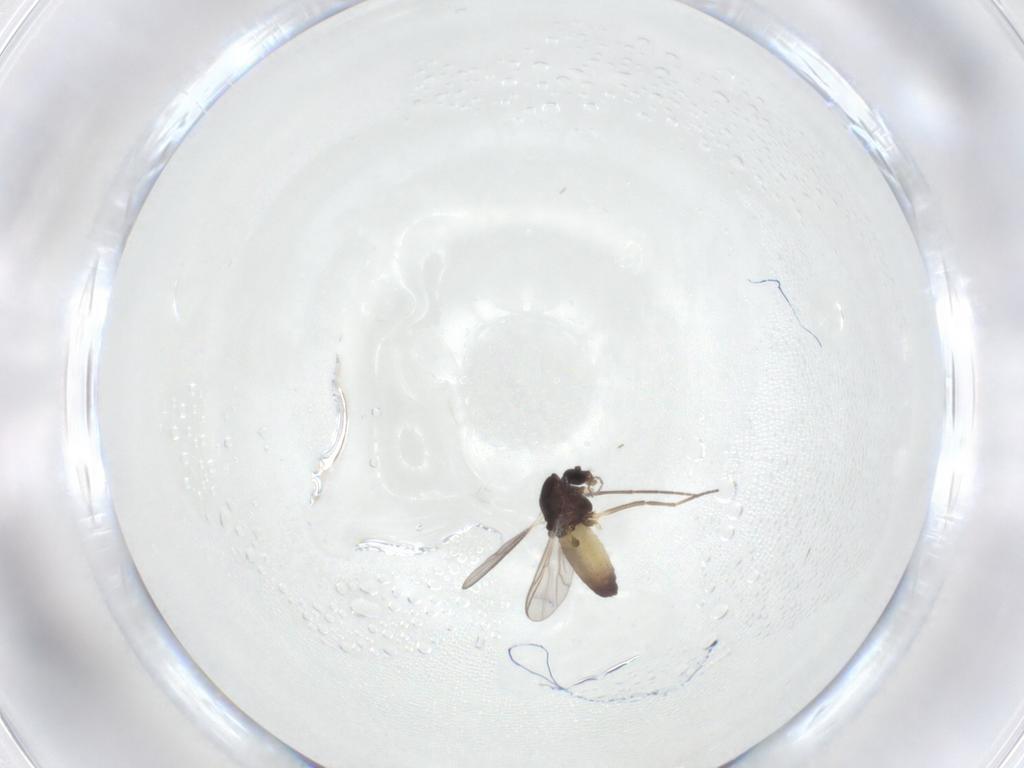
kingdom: Animalia
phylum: Arthropoda
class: Insecta
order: Diptera
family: Chironomidae
